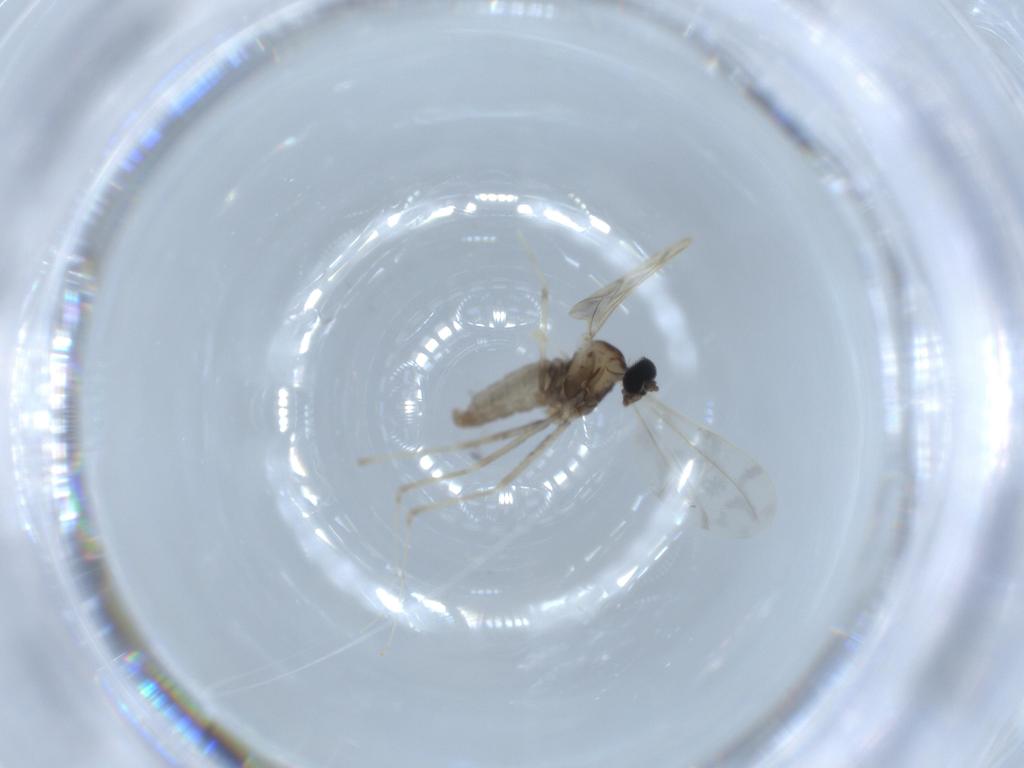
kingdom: Animalia
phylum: Arthropoda
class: Insecta
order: Diptera
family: Cecidomyiidae
